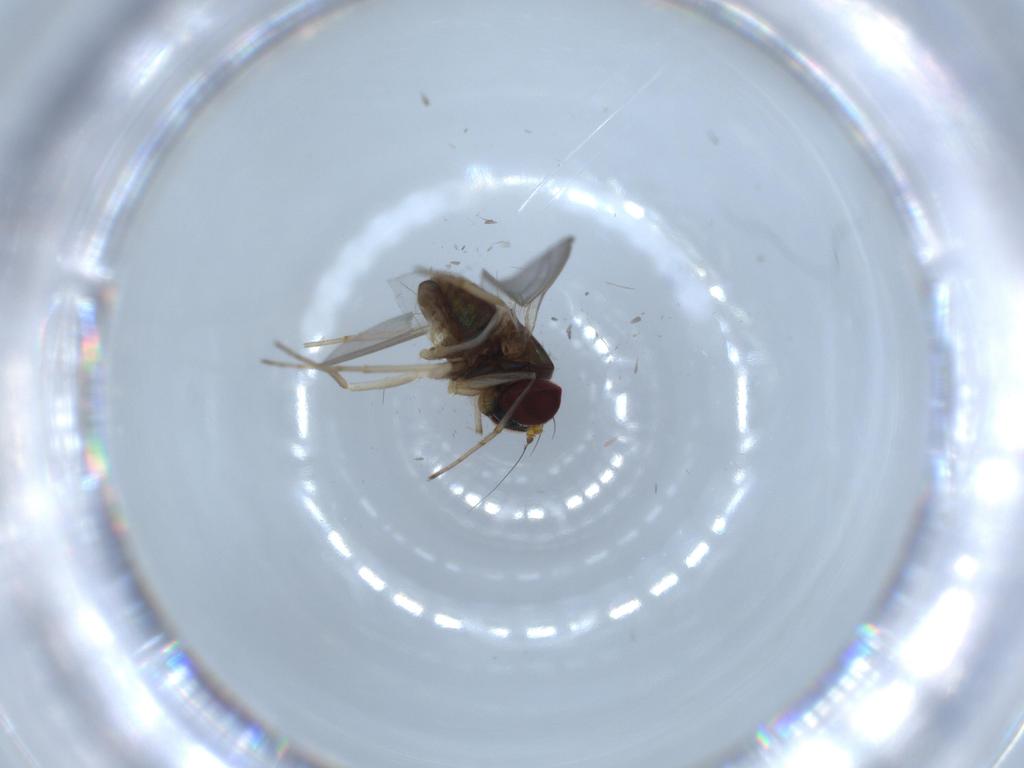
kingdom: Animalia
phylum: Arthropoda
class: Insecta
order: Diptera
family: Dolichopodidae
